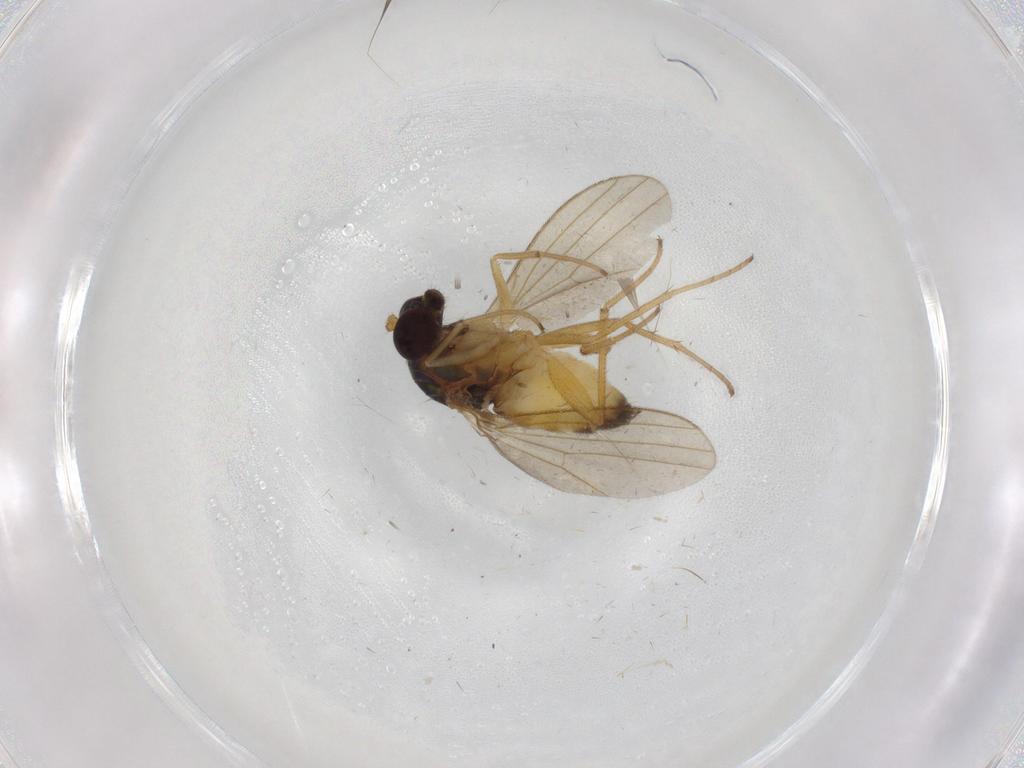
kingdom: Animalia
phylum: Arthropoda
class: Insecta
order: Diptera
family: Dolichopodidae
